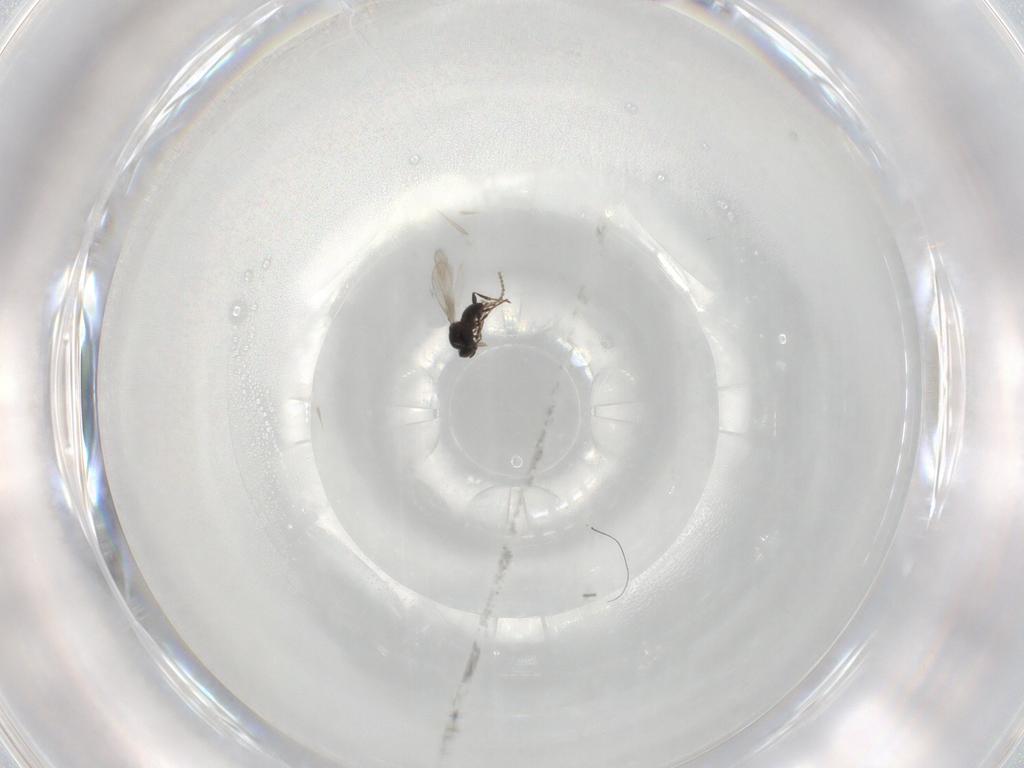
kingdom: Animalia
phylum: Arthropoda
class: Insecta
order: Hymenoptera
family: Platygastridae
